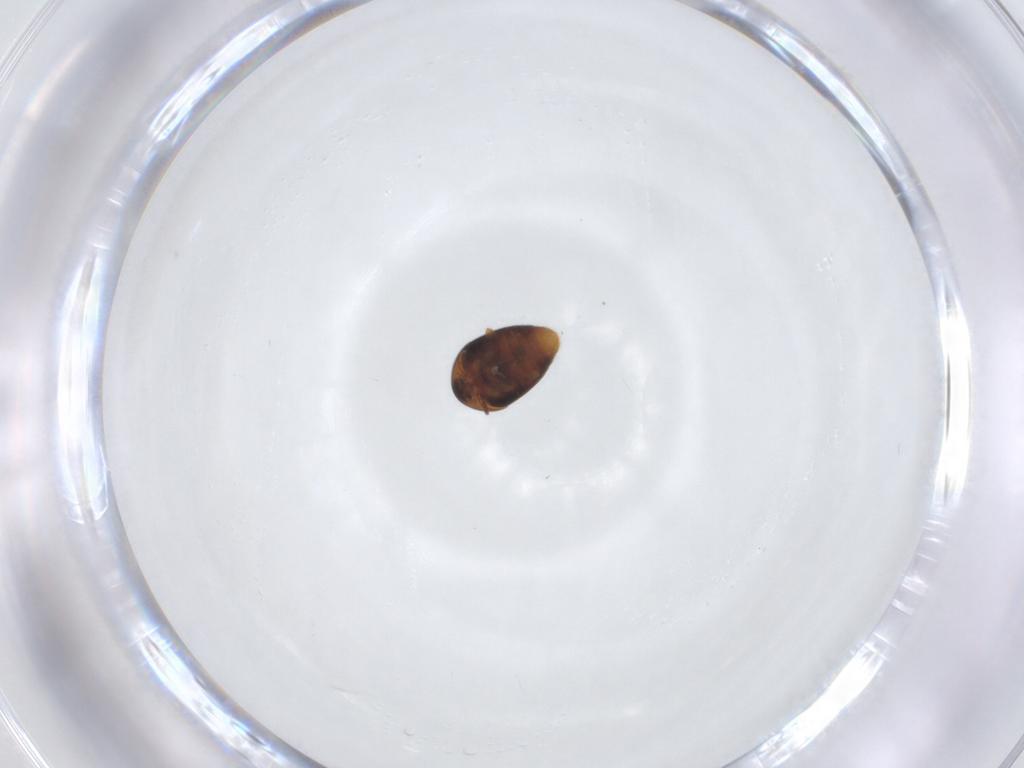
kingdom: Animalia
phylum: Arthropoda
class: Insecta
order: Coleoptera
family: Corylophidae
